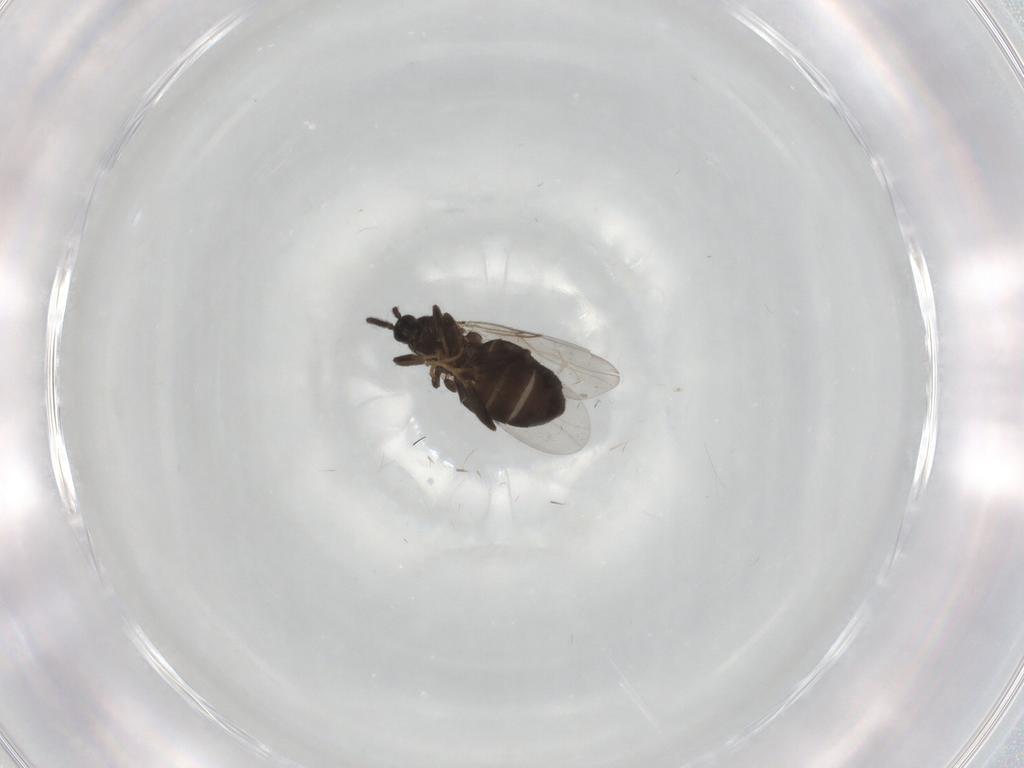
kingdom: Animalia
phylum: Arthropoda
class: Insecta
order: Diptera
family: Scatopsidae
